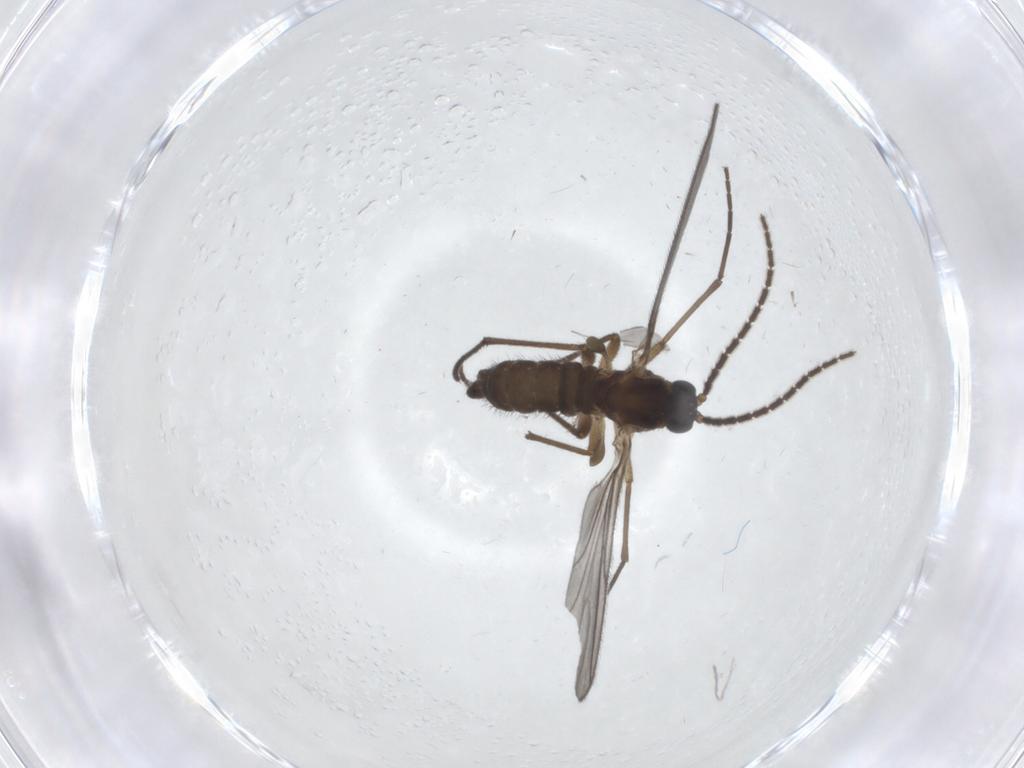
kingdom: Animalia
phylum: Arthropoda
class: Insecta
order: Diptera
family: Sciaridae
